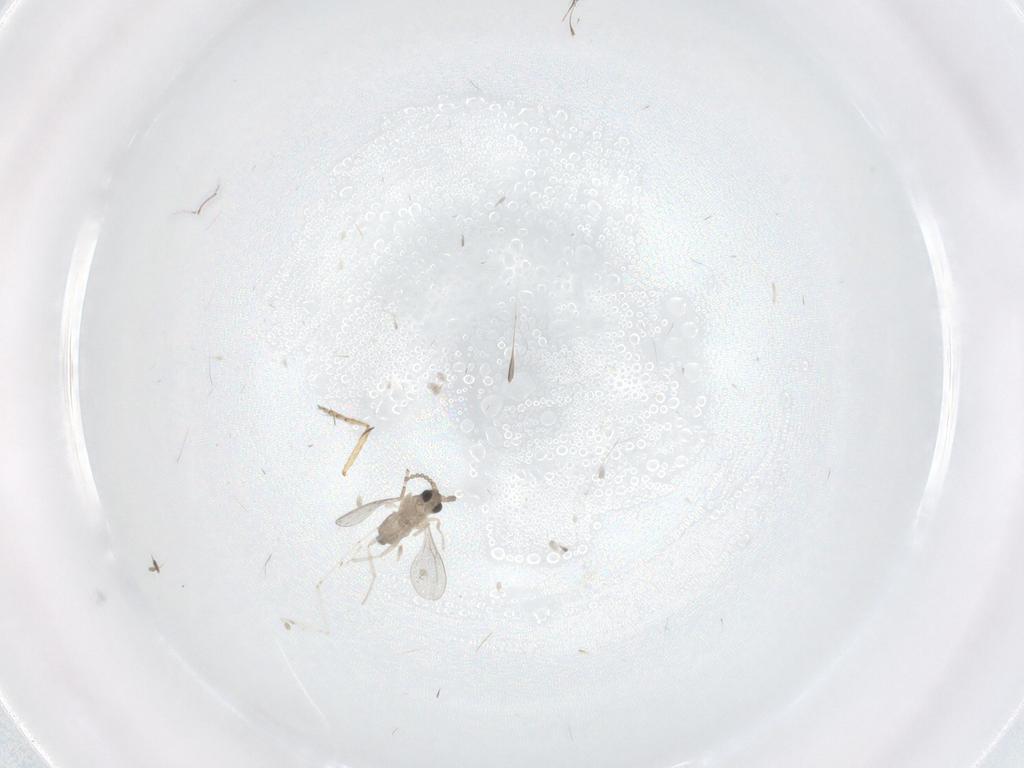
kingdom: Animalia
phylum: Arthropoda
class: Insecta
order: Diptera
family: Cecidomyiidae
